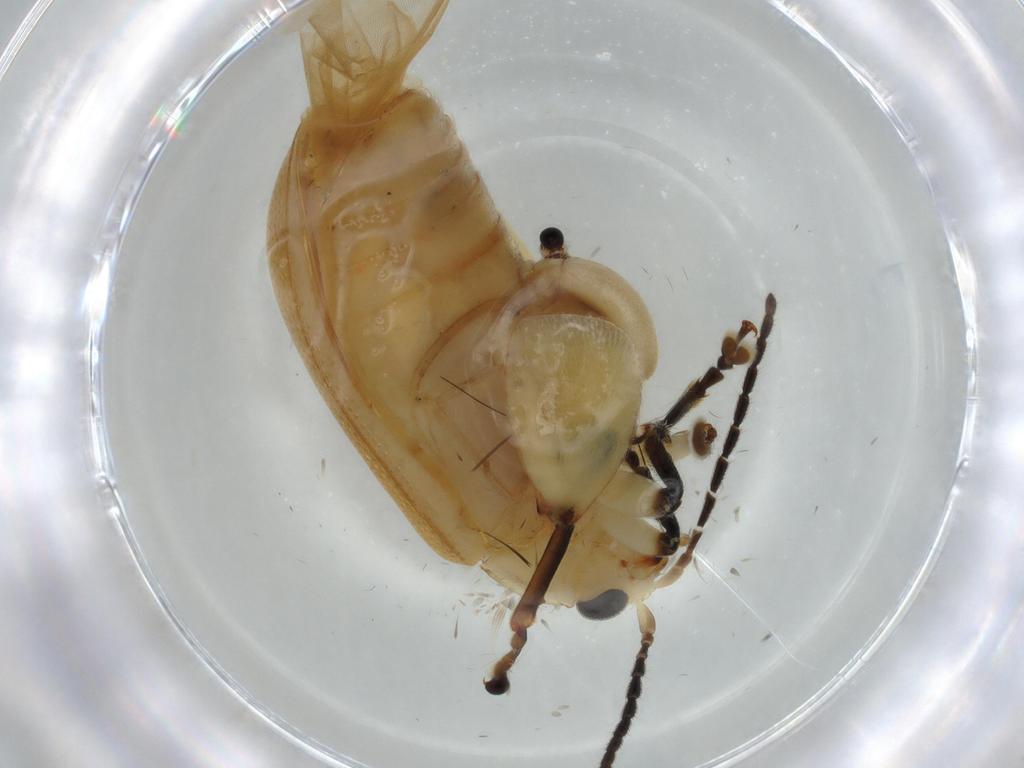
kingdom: Animalia
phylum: Arthropoda
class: Insecta
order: Coleoptera
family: Chrysomelidae
